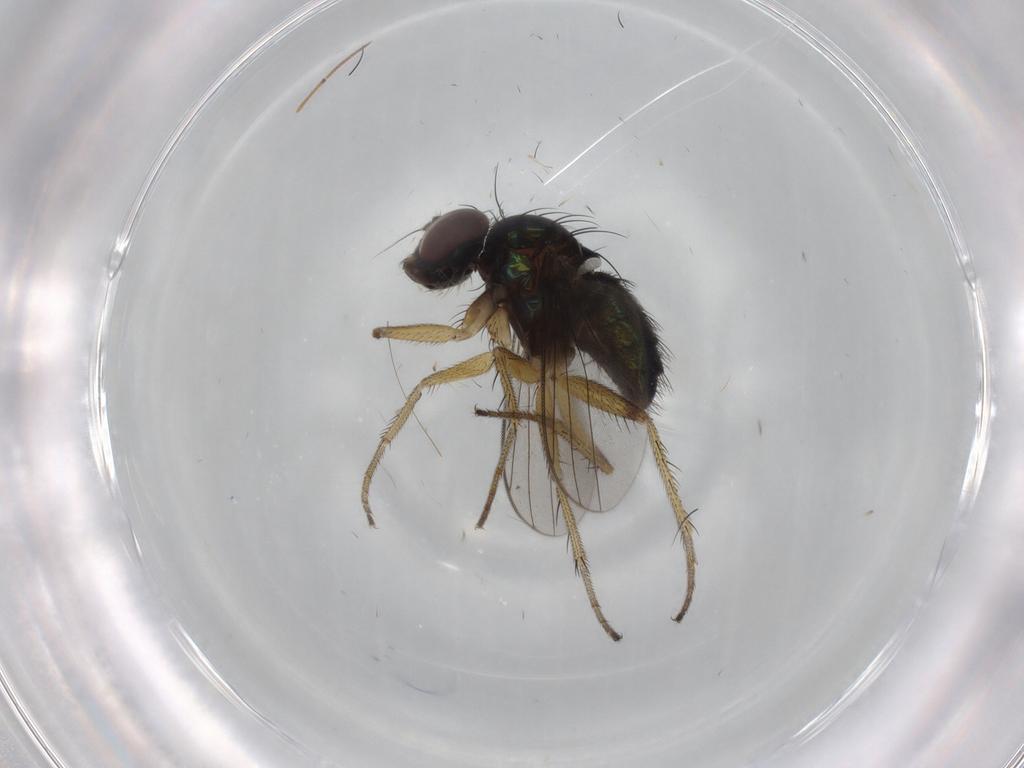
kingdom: Animalia
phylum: Arthropoda
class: Insecta
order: Diptera
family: Dolichopodidae
